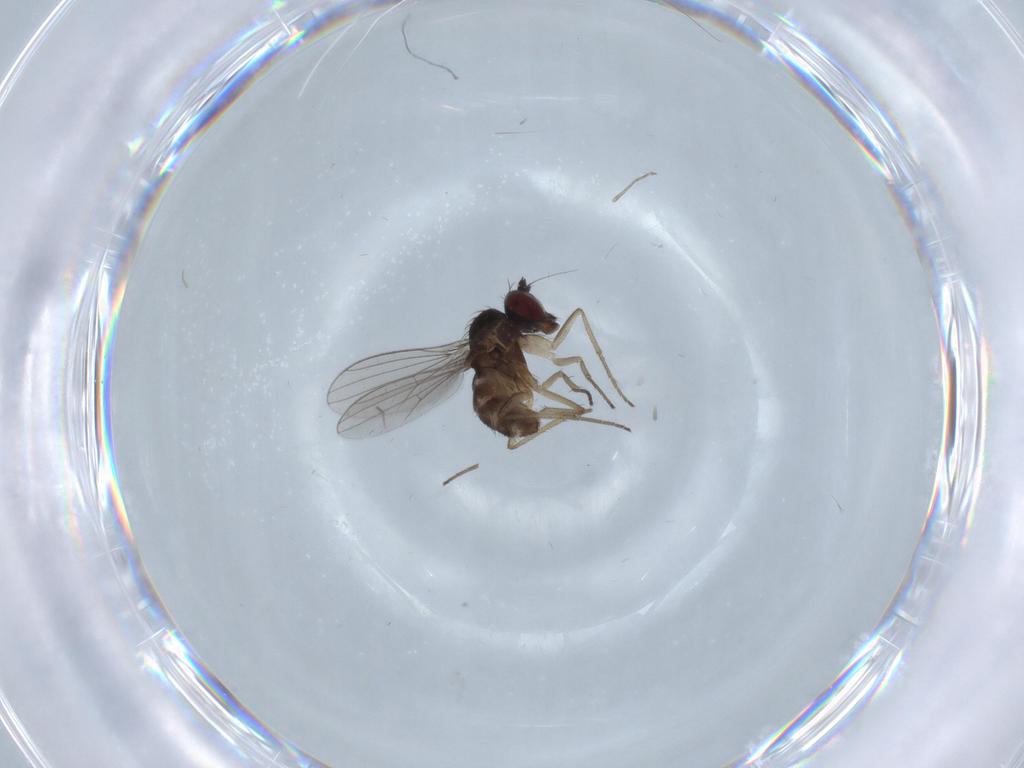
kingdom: Animalia
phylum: Arthropoda
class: Insecta
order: Diptera
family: Dolichopodidae
